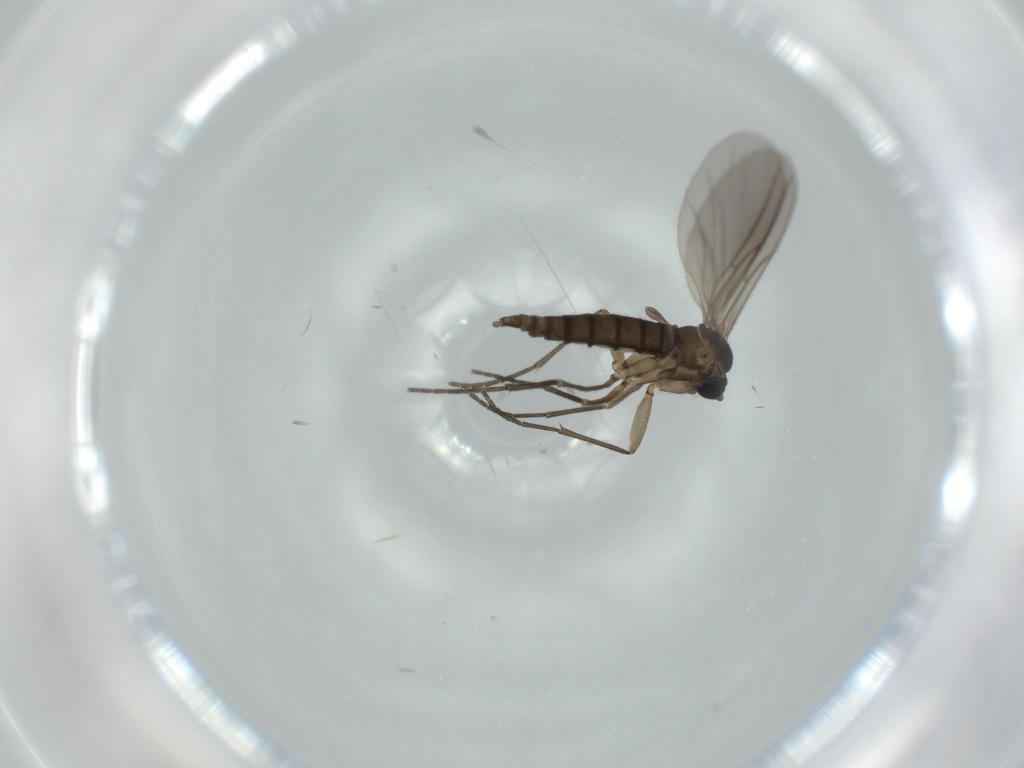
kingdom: Animalia
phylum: Arthropoda
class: Insecta
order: Diptera
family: Sciaridae
